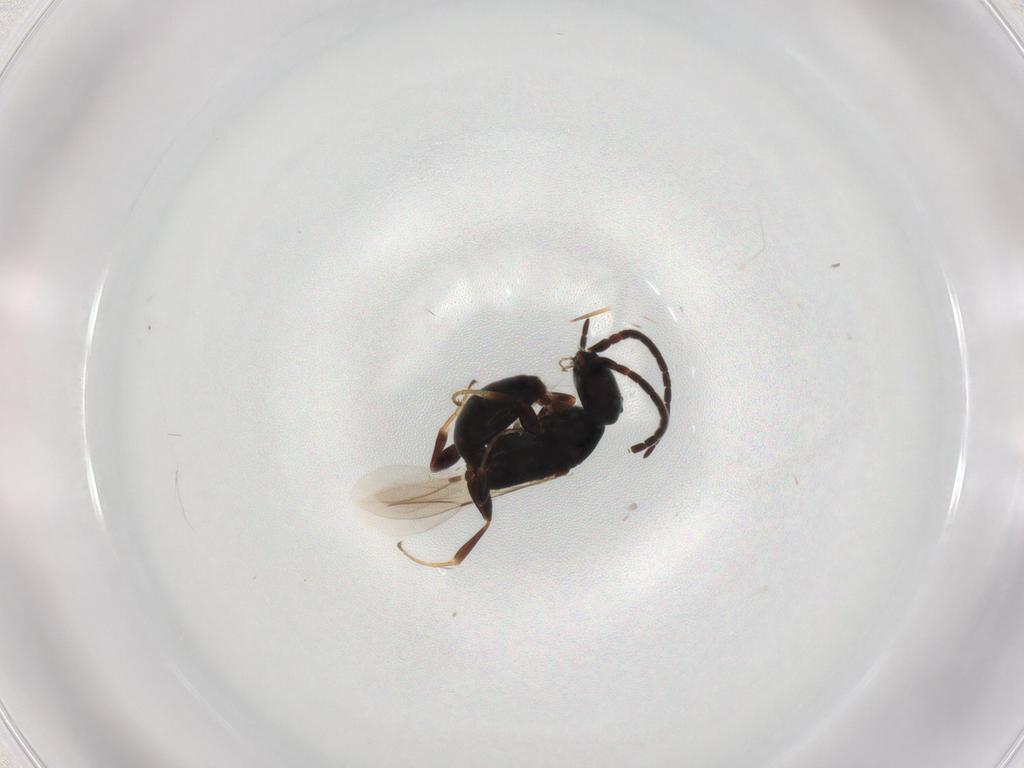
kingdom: Animalia
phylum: Arthropoda
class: Insecta
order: Hymenoptera
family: Bethylidae
